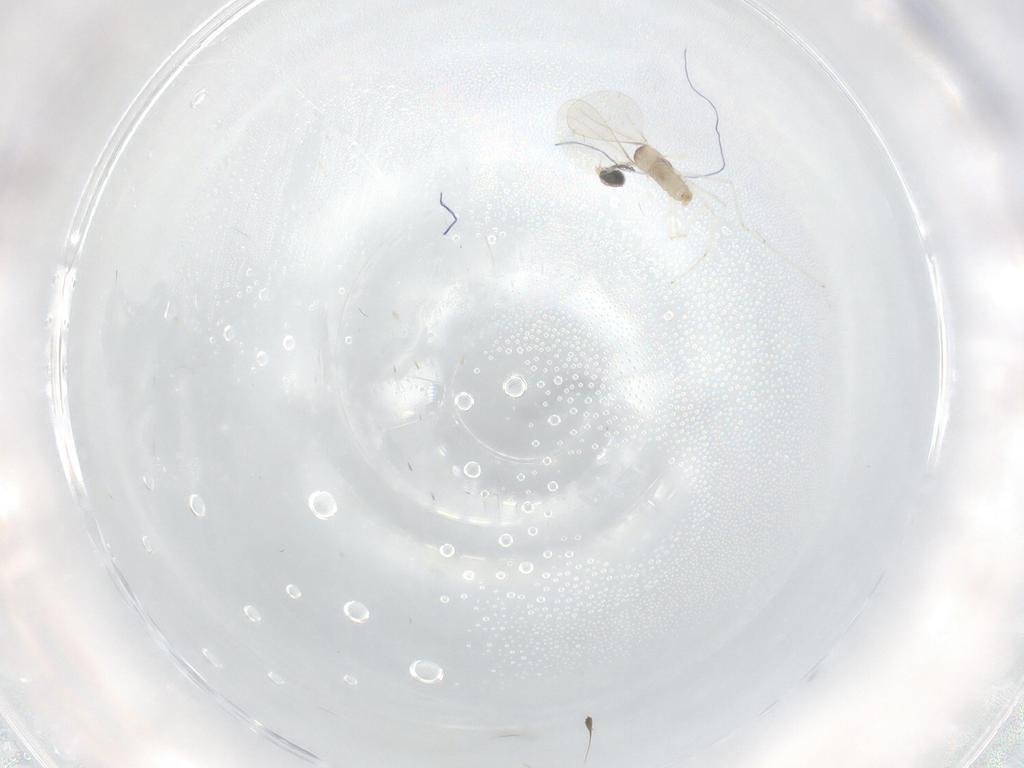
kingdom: Animalia
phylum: Arthropoda
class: Insecta
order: Diptera
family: Cecidomyiidae
